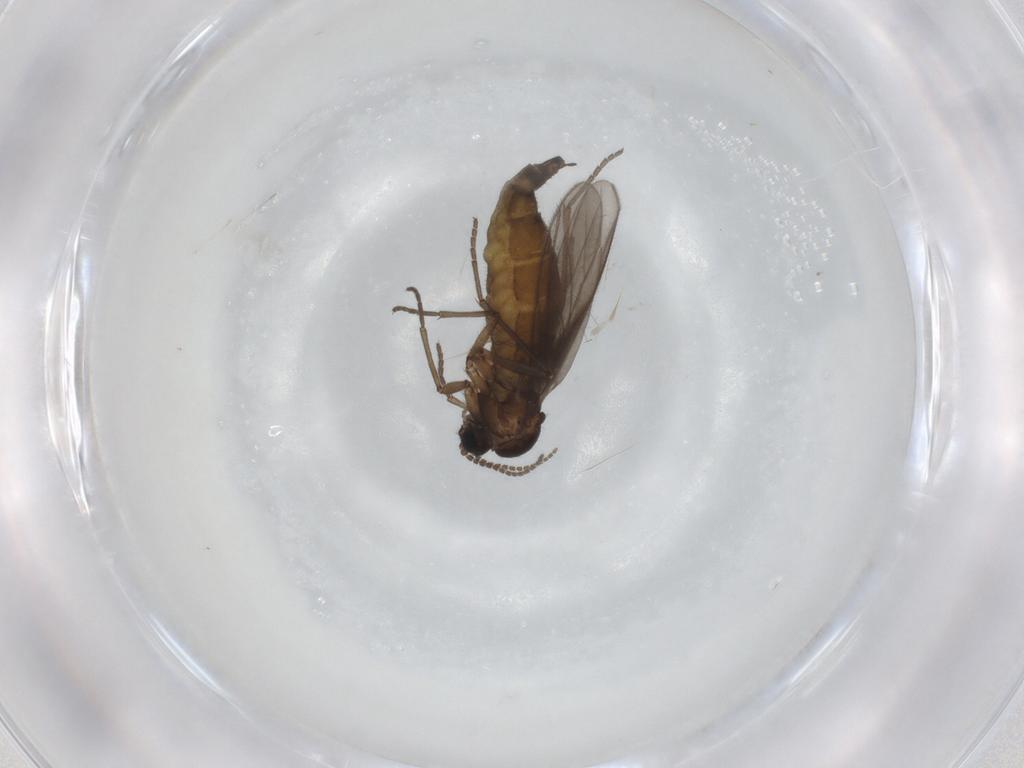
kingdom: Animalia
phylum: Arthropoda
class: Insecta
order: Diptera
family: Sciaridae
